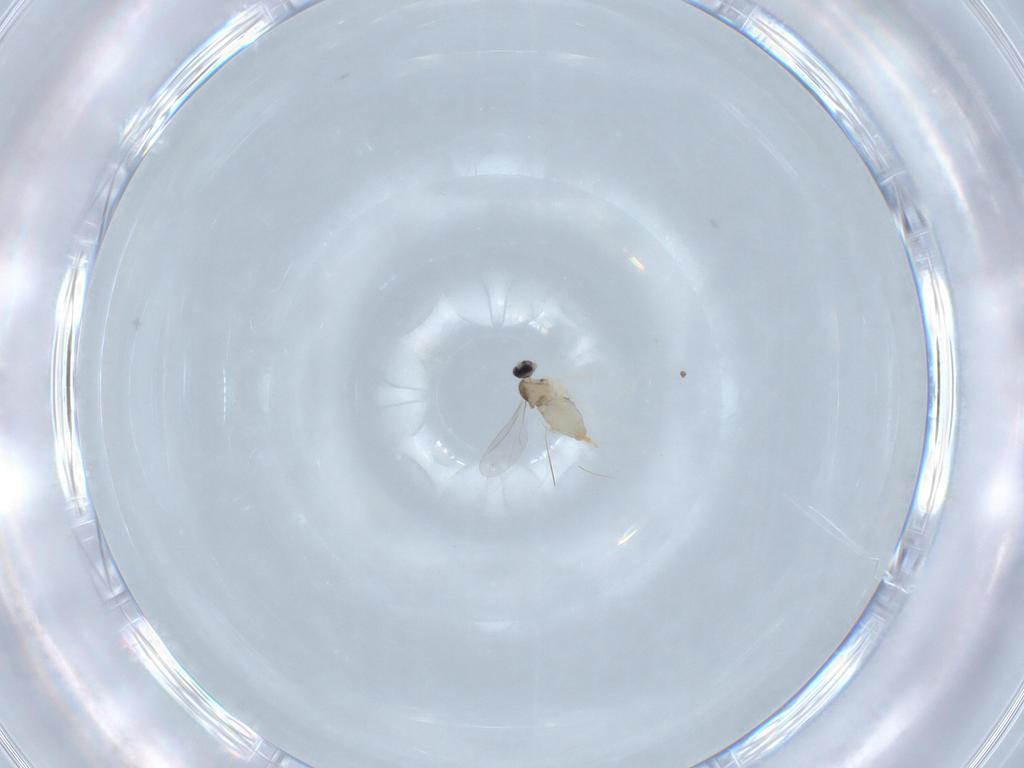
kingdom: Animalia
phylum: Arthropoda
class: Insecta
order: Diptera
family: Cecidomyiidae
